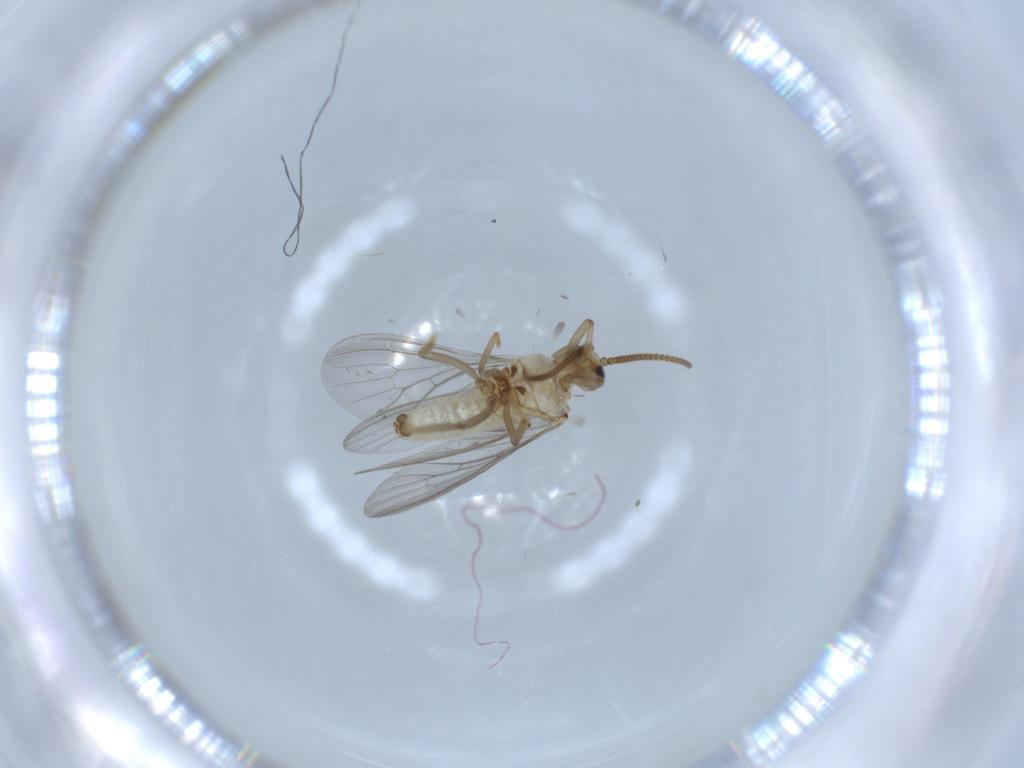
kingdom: Animalia
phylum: Arthropoda
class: Insecta
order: Neuroptera
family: Coniopterygidae
